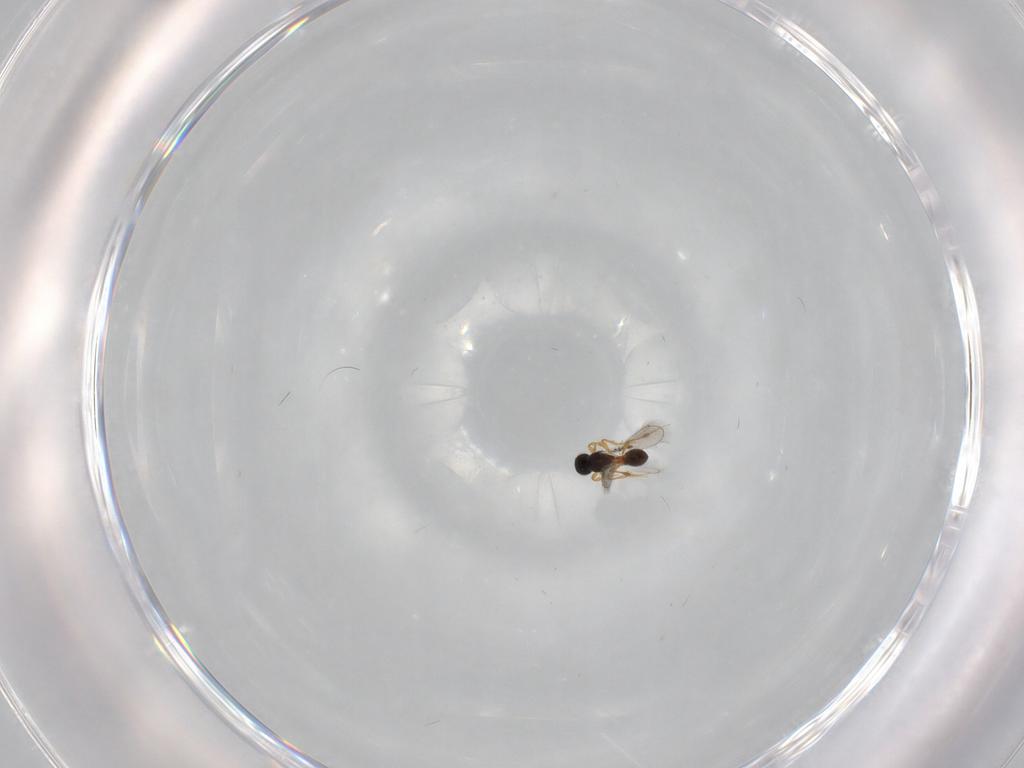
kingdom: Animalia
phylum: Arthropoda
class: Insecta
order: Hymenoptera
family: Platygastridae
